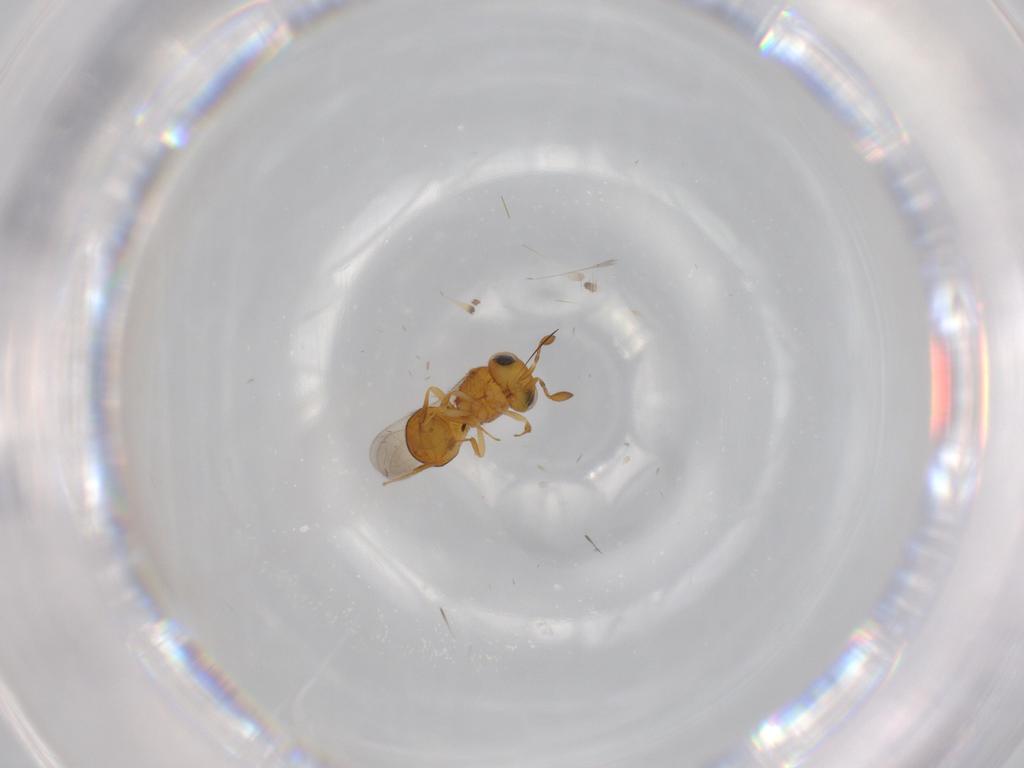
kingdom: Animalia
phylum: Arthropoda
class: Insecta
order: Hymenoptera
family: Scelionidae
